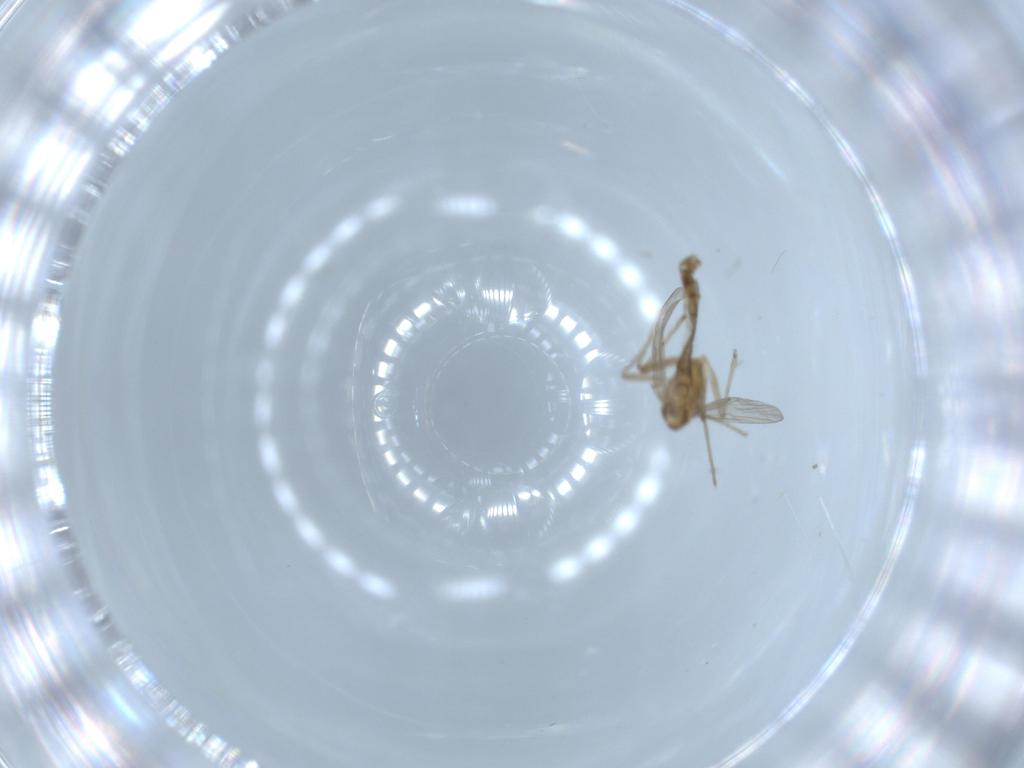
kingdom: Animalia
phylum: Arthropoda
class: Insecta
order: Diptera
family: Chironomidae
